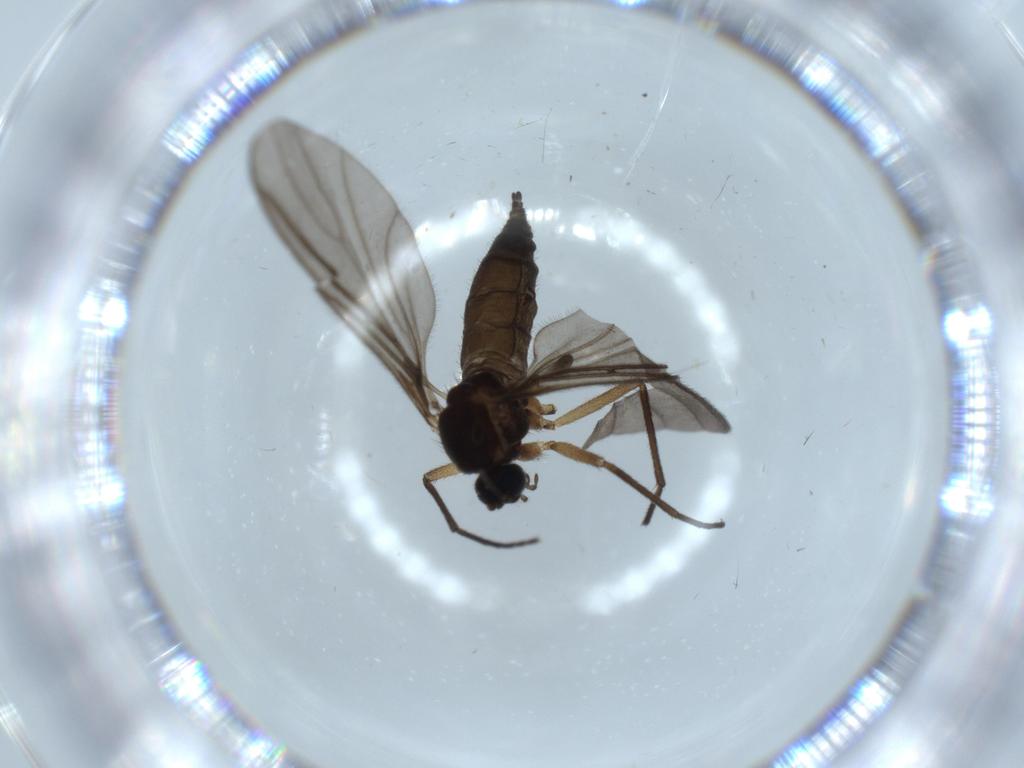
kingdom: Animalia
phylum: Arthropoda
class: Insecta
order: Diptera
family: Sciaridae
